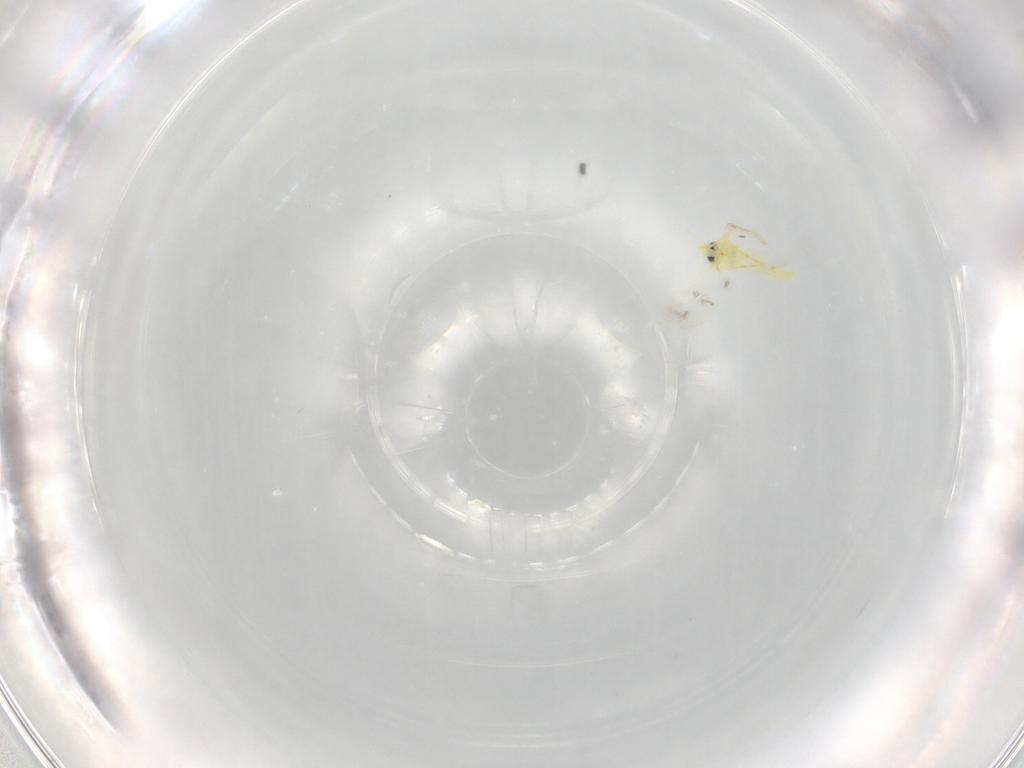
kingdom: Animalia
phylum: Arthropoda
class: Insecta
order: Hemiptera
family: Aleyrodidae
